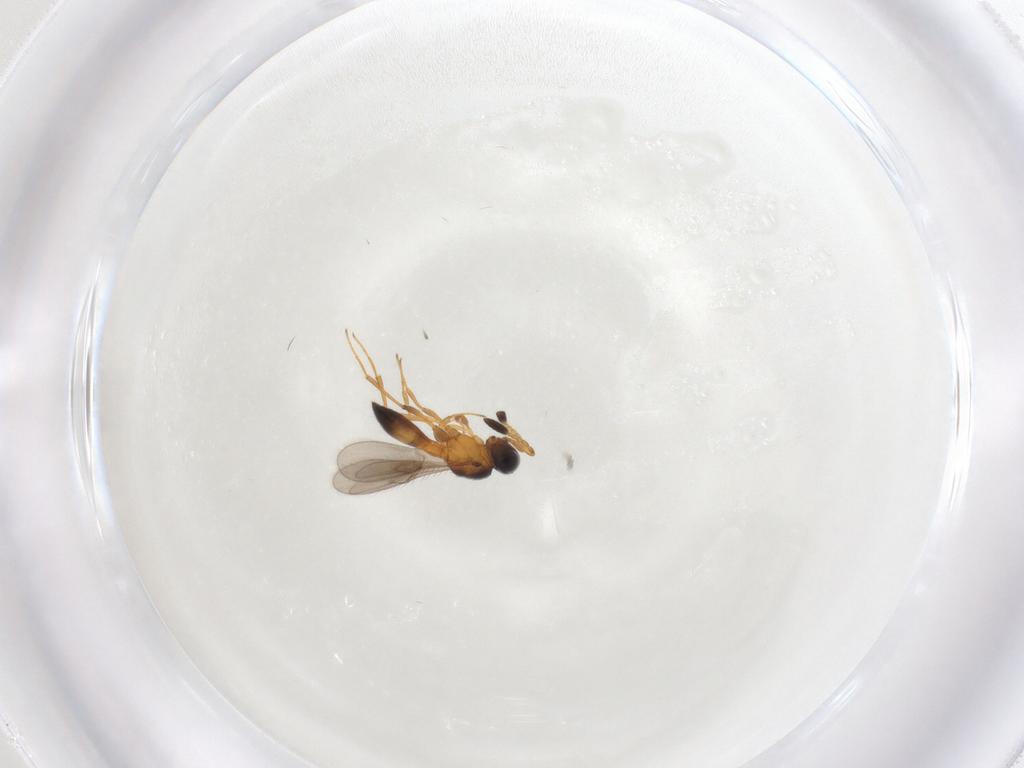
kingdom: Animalia
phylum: Arthropoda
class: Insecta
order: Hymenoptera
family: Scelionidae
